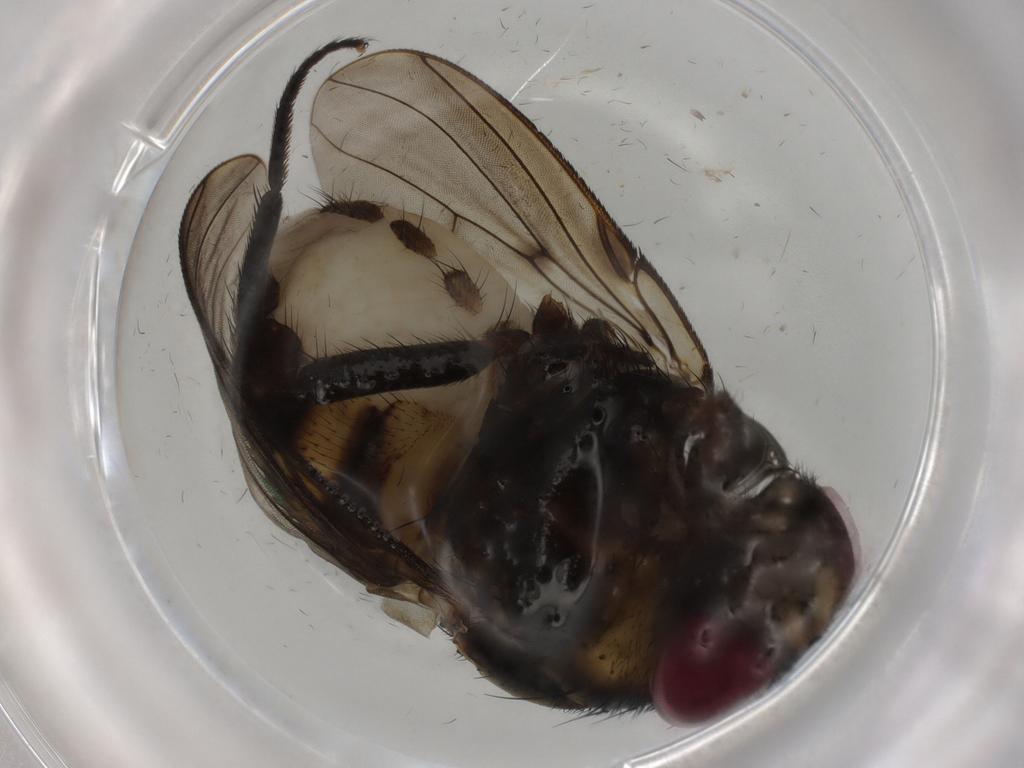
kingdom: Animalia
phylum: Arthropoda
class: Insecta
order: Diptera
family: Muscidae
